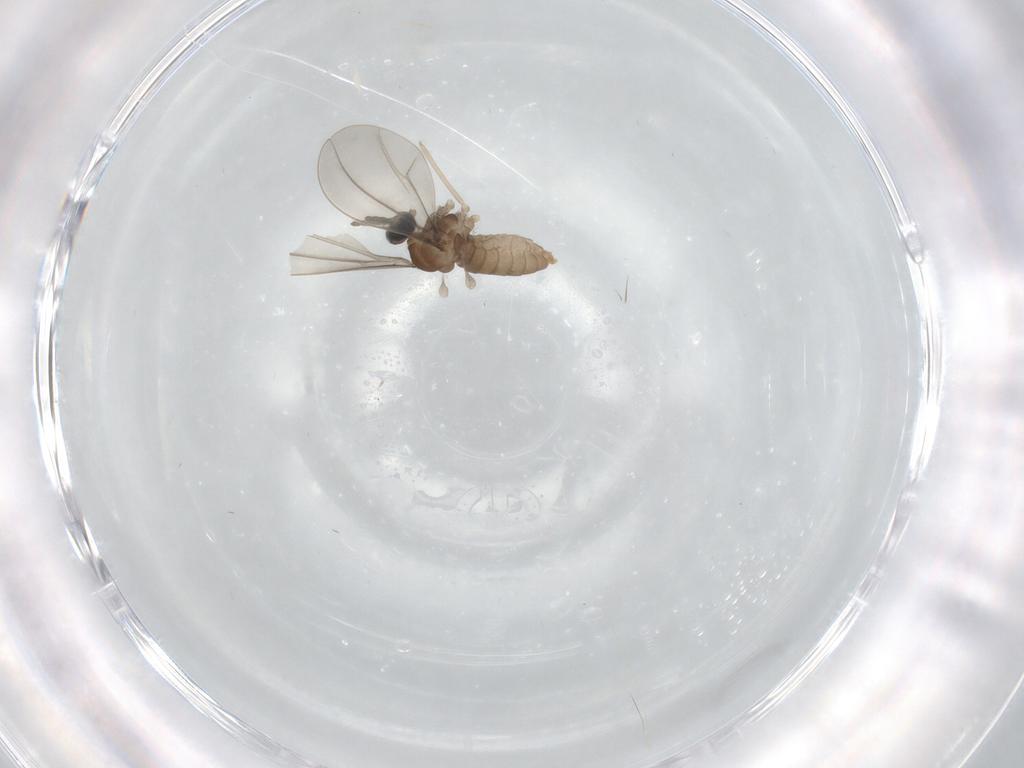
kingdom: Animalia
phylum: Arthropoda
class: Insecta
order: Diptera
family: Cecidomyiidae
